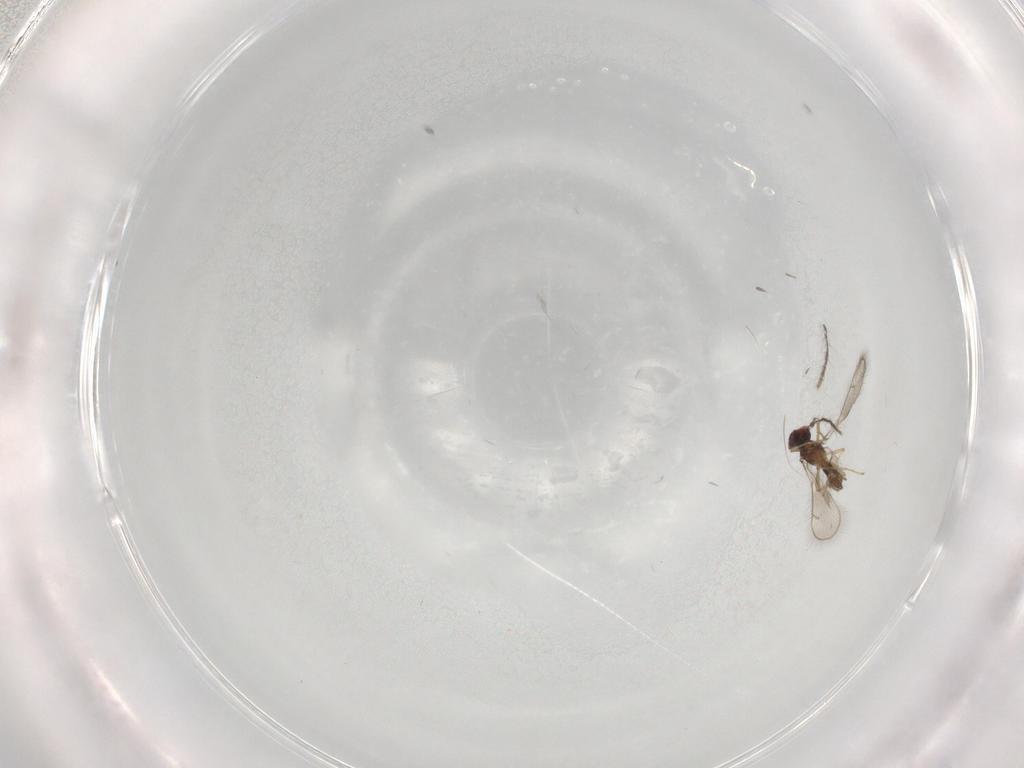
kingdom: Animalia
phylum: Arthropoda
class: Insecta
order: Hymenoptera
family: Eulophidae
